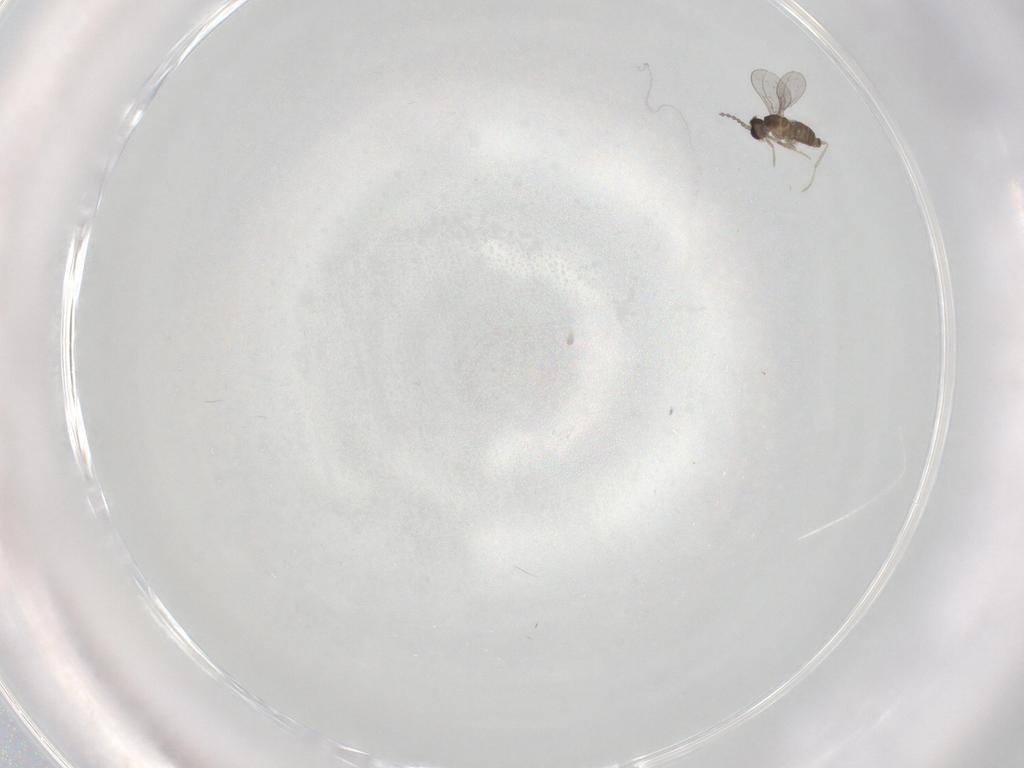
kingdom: Animalia
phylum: Arthropoda
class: Insecta
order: Diptera
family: Cecidomyiidae
